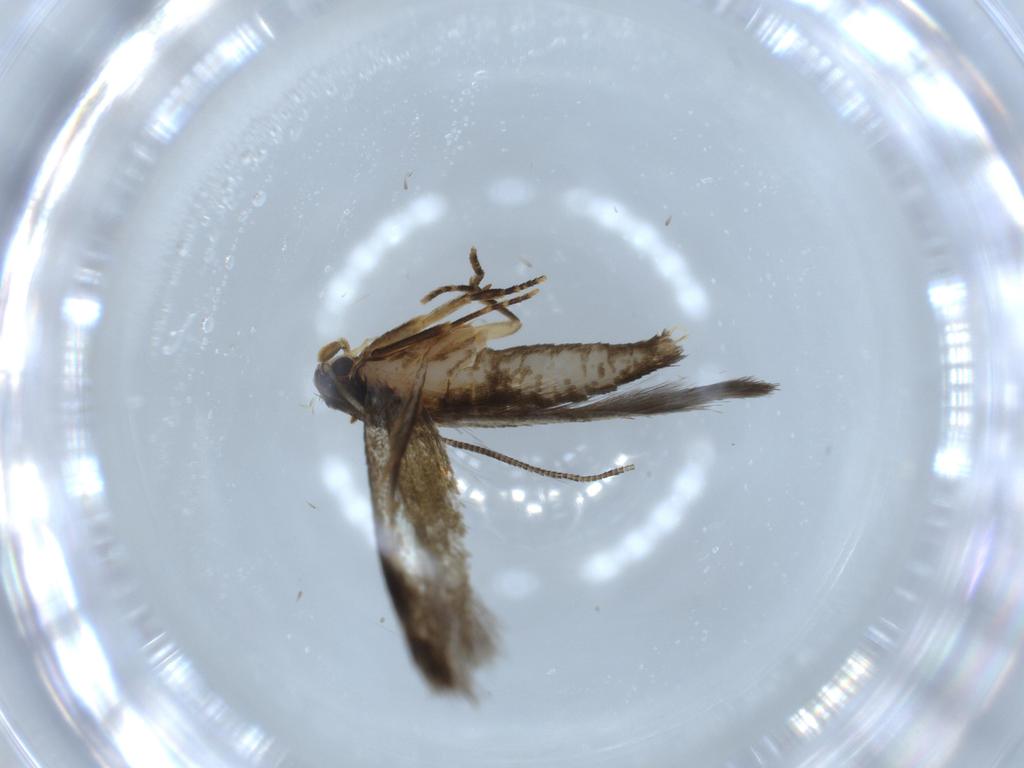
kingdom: Animalia
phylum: Arthropoda
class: Insecta
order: Lepidoptera
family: Tineidae
